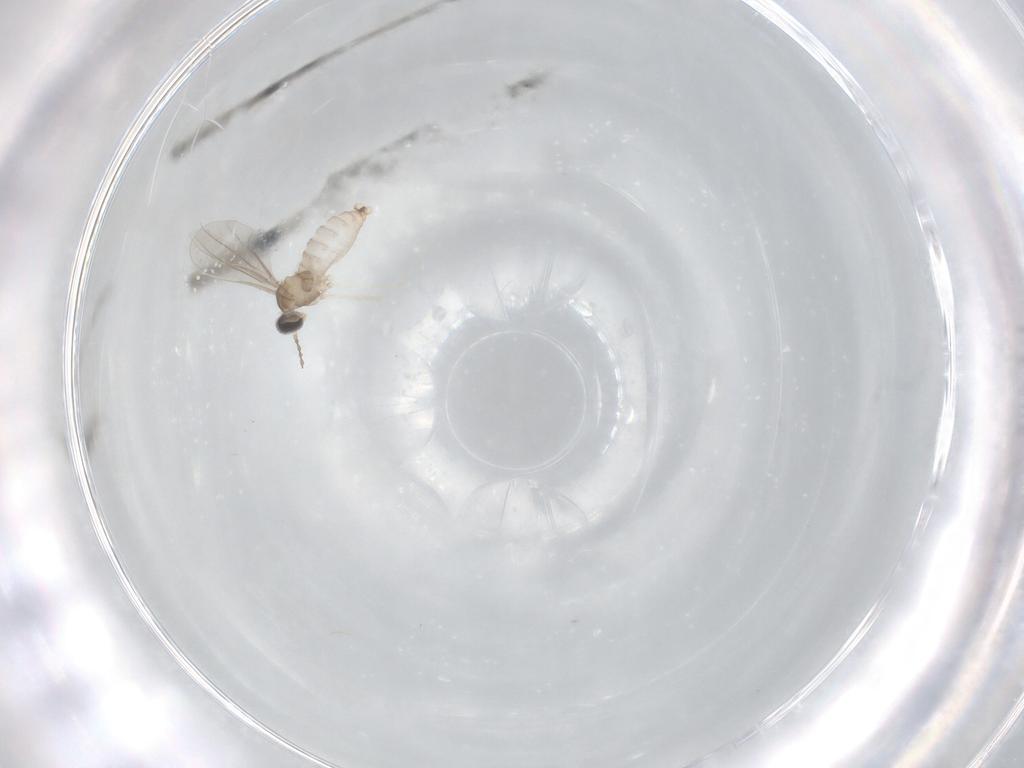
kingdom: Animalia
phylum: Arthropoda
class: Insecta
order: Diptera
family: Cecidomyiidae
